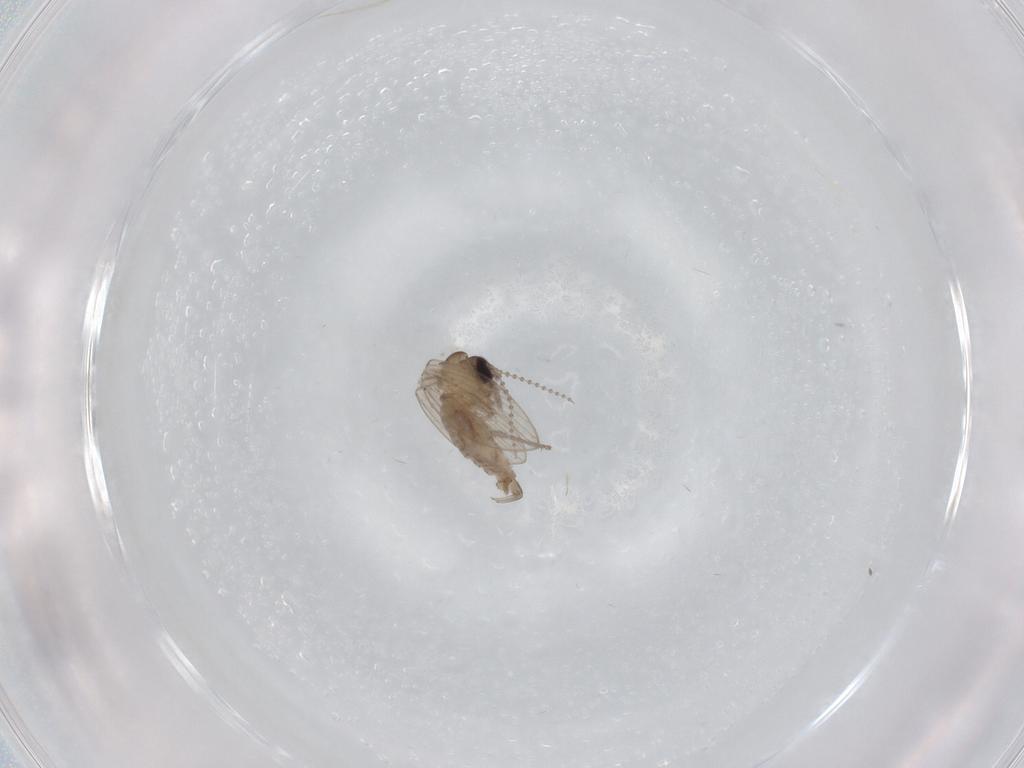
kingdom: Animalia
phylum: Arthropoda
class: Insecta
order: Diptera
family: Psychodidae
